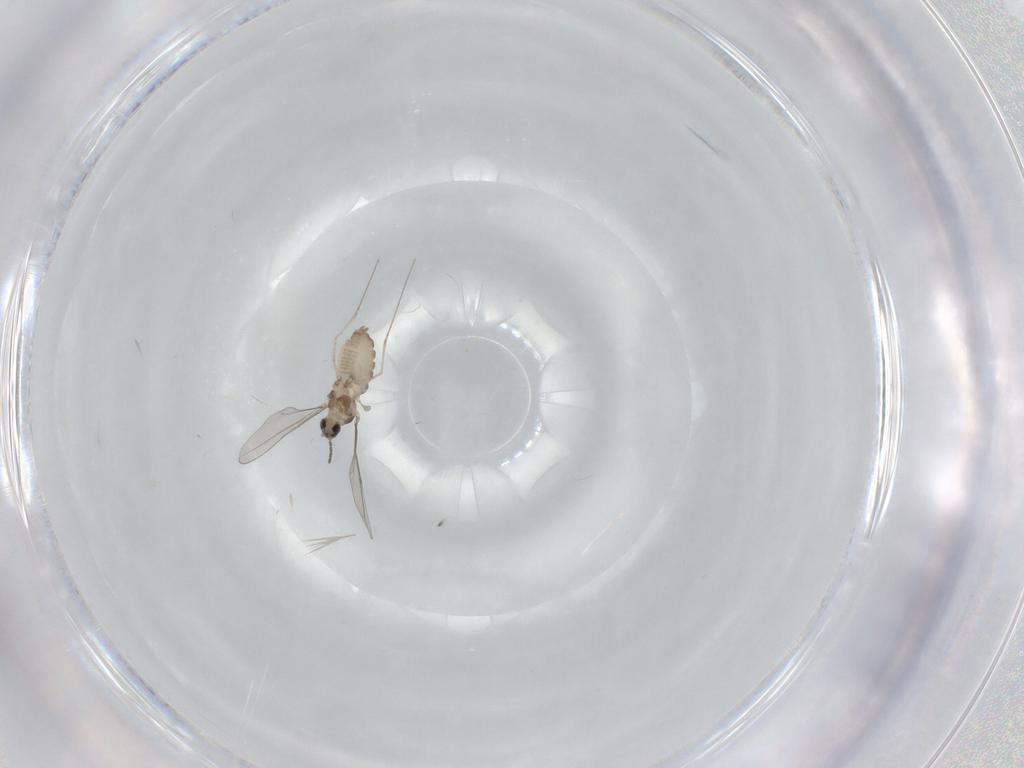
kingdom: Animalia
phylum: Arthropoda
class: Insecta
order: Diptera
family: Cecidomyiidae
